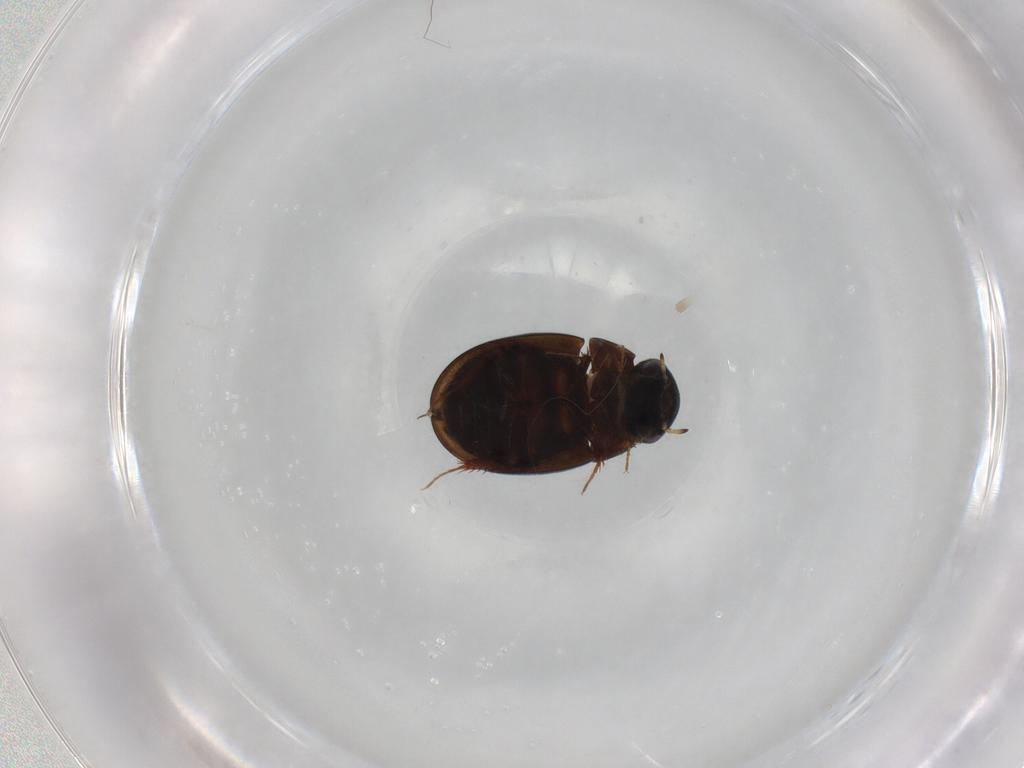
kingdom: Animalia
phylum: Arthropoda
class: Insecta
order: Coleoptera
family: Hydrophilidae
